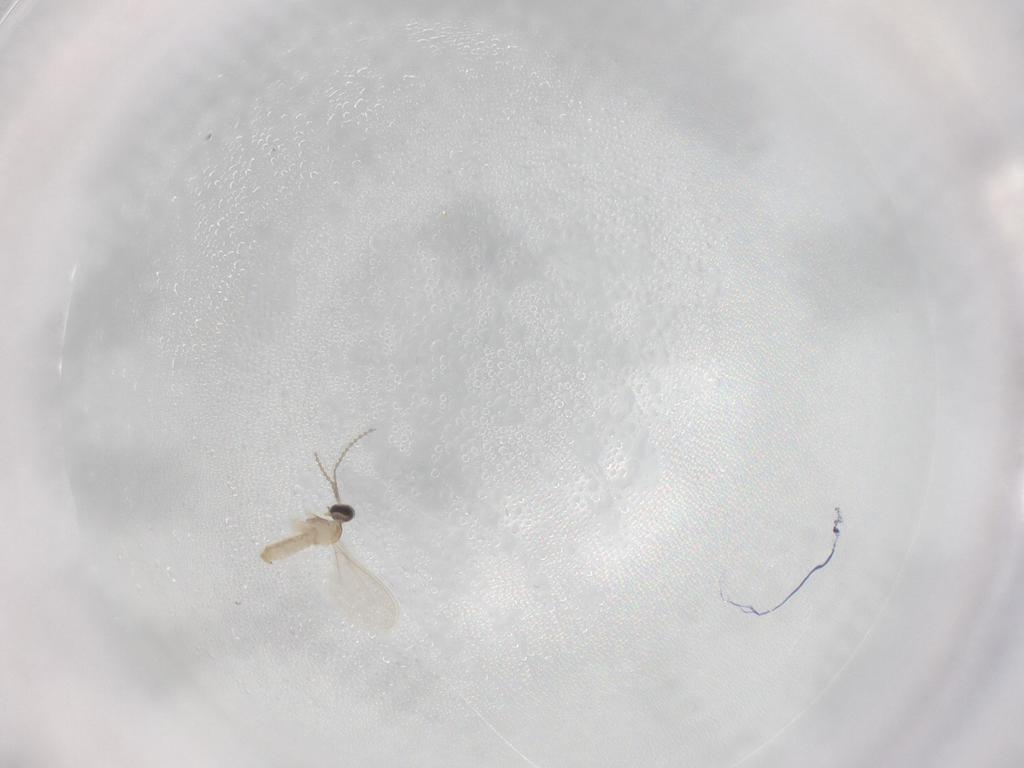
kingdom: Animalia
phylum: Arthropoda
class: Insecta
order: Diptera
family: Cecidomyiidae
